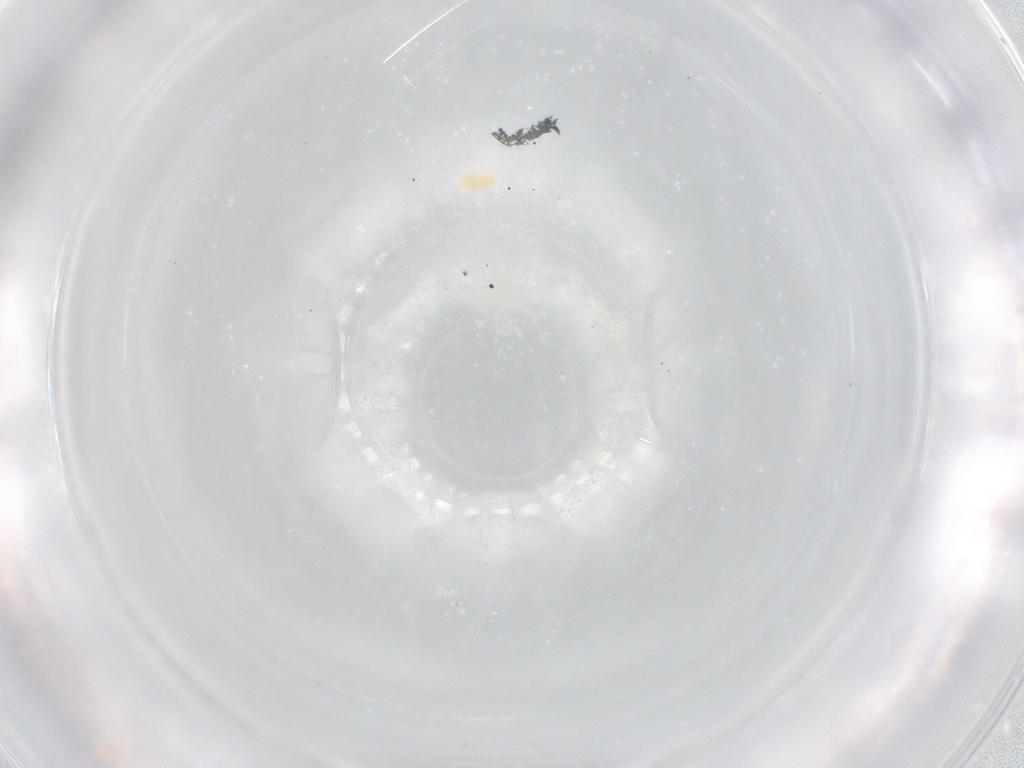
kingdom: Animalia
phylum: Arthropoda
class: Arachnida
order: Trombidiformes
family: Tydeidae
